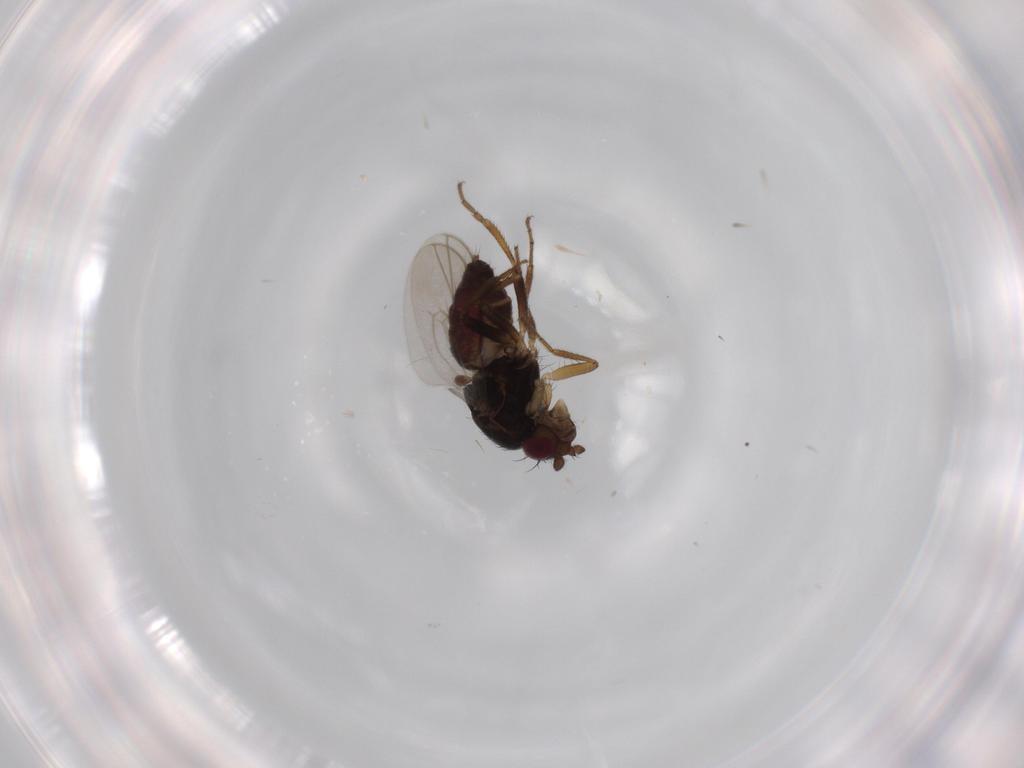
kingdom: Animalia
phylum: Arthropoda
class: Insecta
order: Diptera
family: Sphaeroceridae
